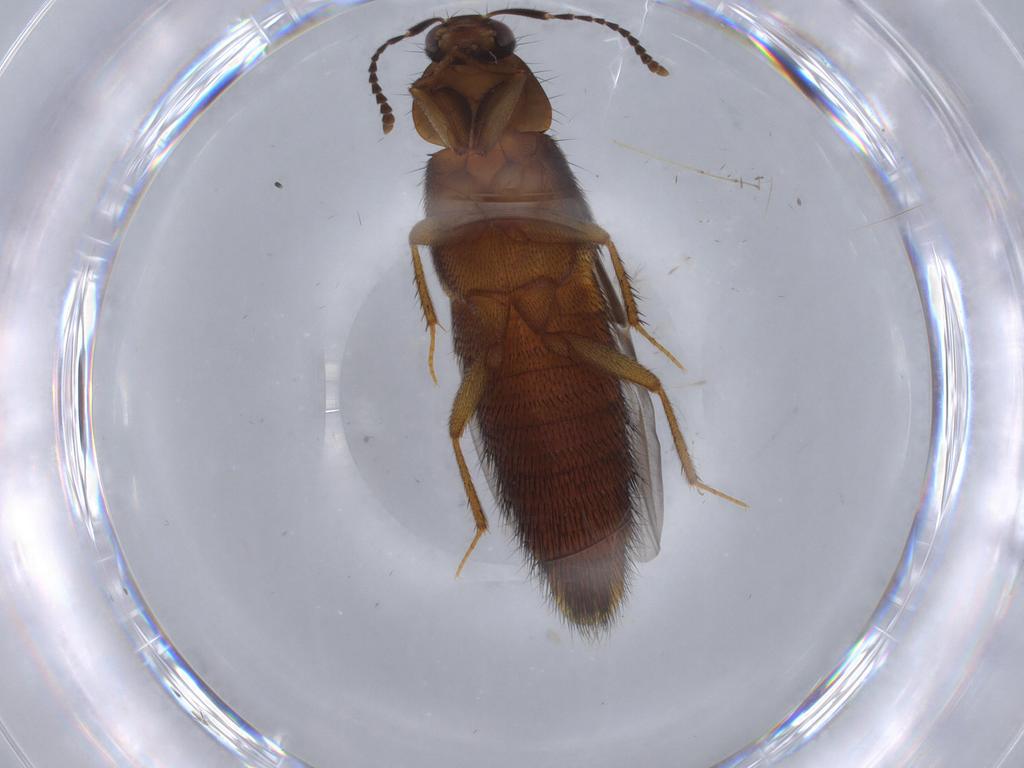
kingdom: Animalia
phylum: Arthropoda
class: Insecta
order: Coleoptera
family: Staphylinidae
